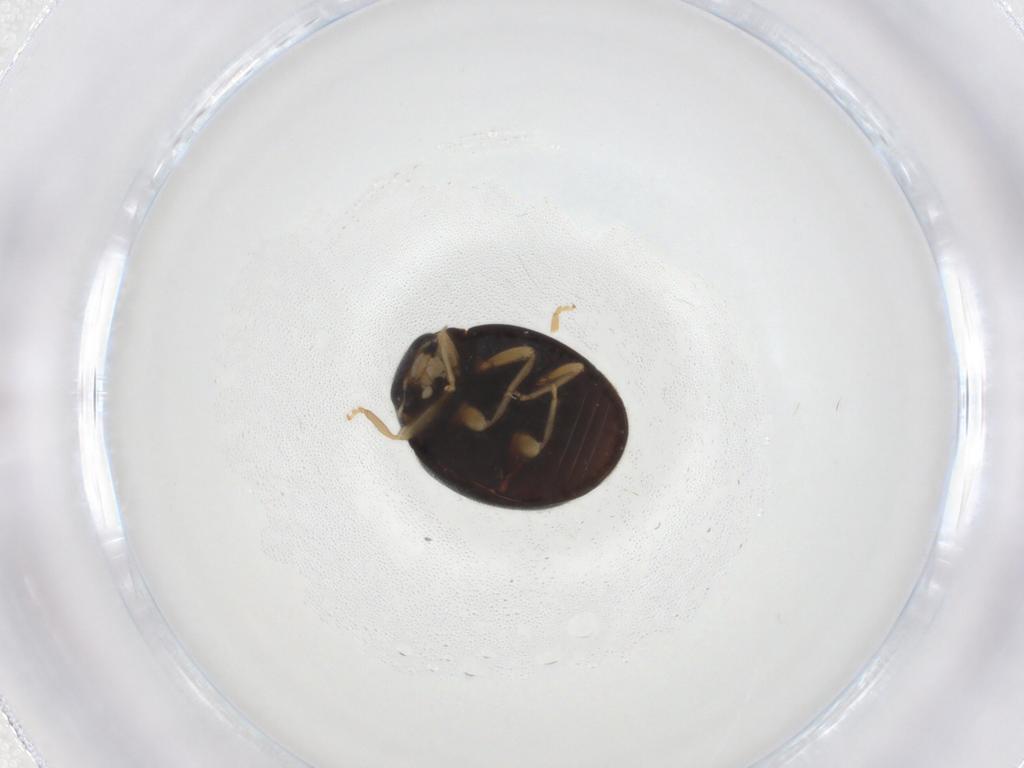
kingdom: Animalia
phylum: Arthropoda
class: Insecta
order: Coleoptera
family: Coccinellidae
